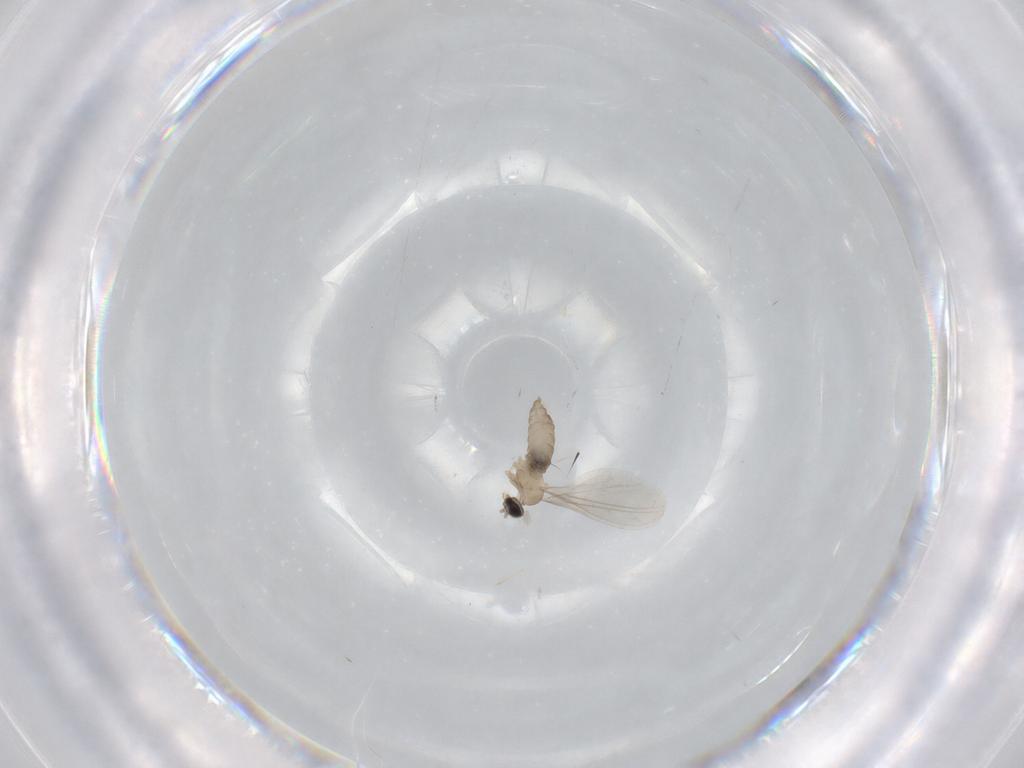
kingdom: Animalia
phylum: Arthropoda
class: Insecta
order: Diptera
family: Cecidomyiidae
